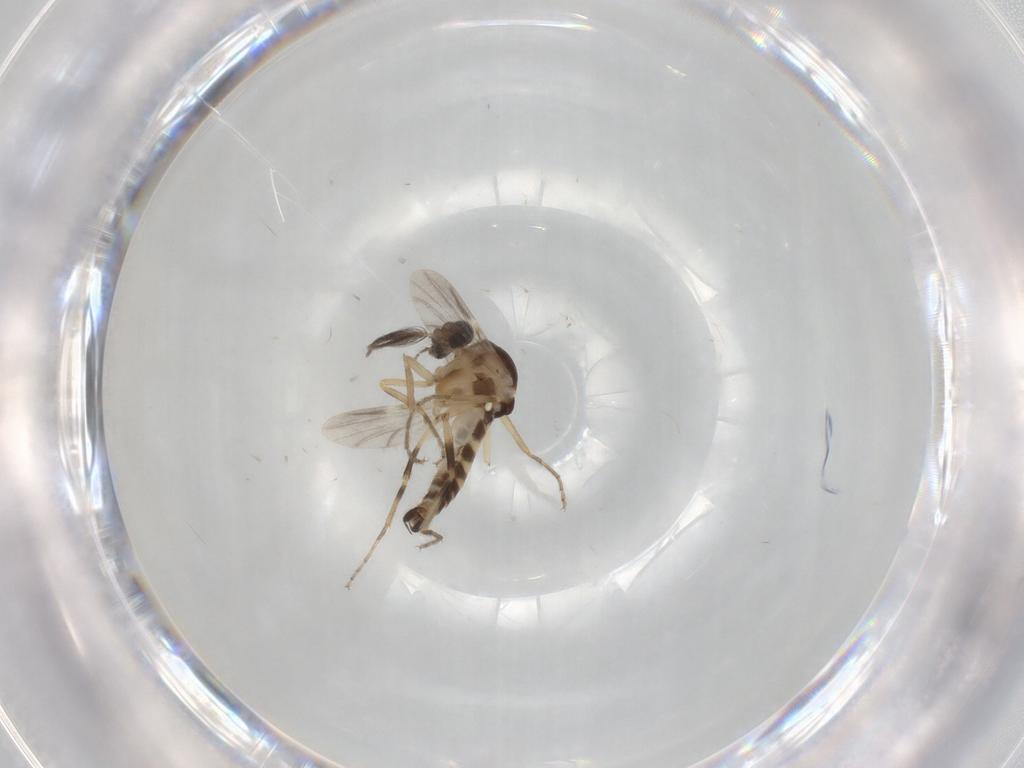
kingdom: Animalia
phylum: Arthropoda
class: Insecta
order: Diptera
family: Ceratopogonidae
